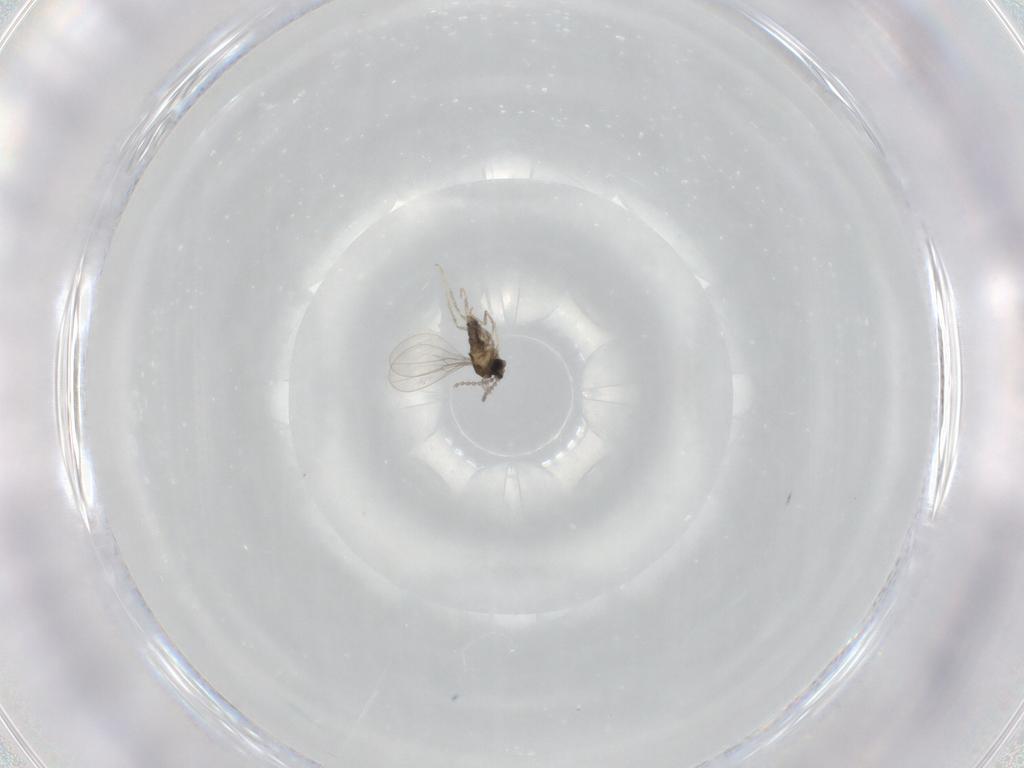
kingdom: Animalia
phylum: Arthropoda
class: Insecta
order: Diptera
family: Cecidomyiidae
